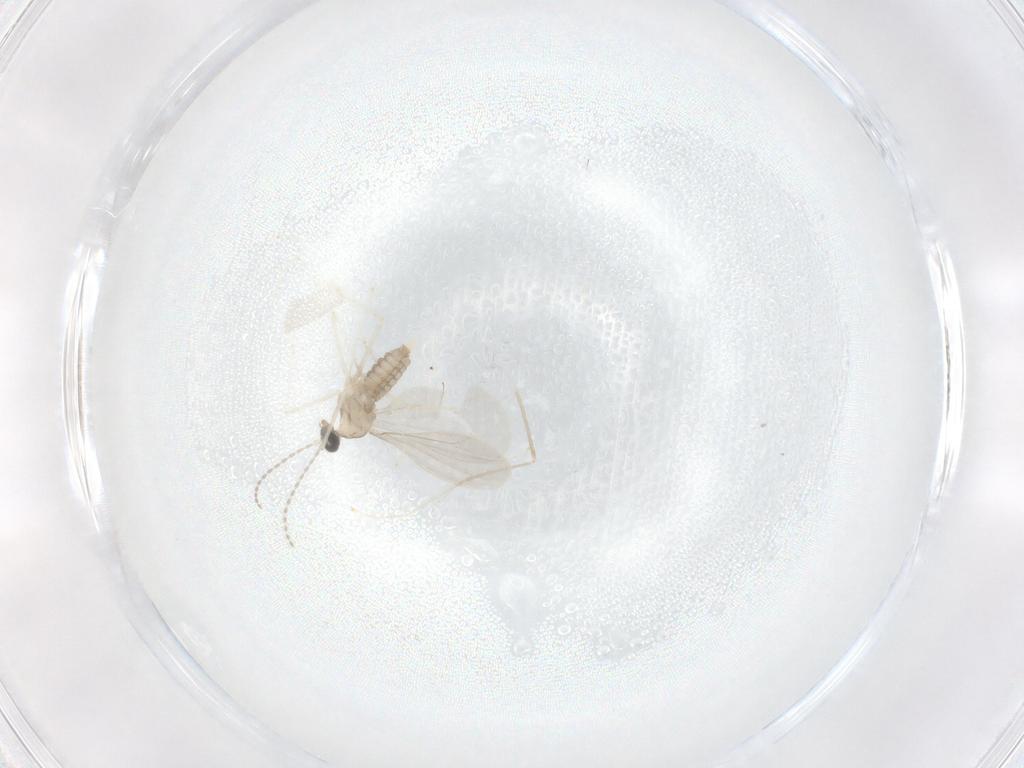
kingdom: Animalia
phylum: Arthropoda
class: Insecta
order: Diptera
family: Cecidomyiidae
